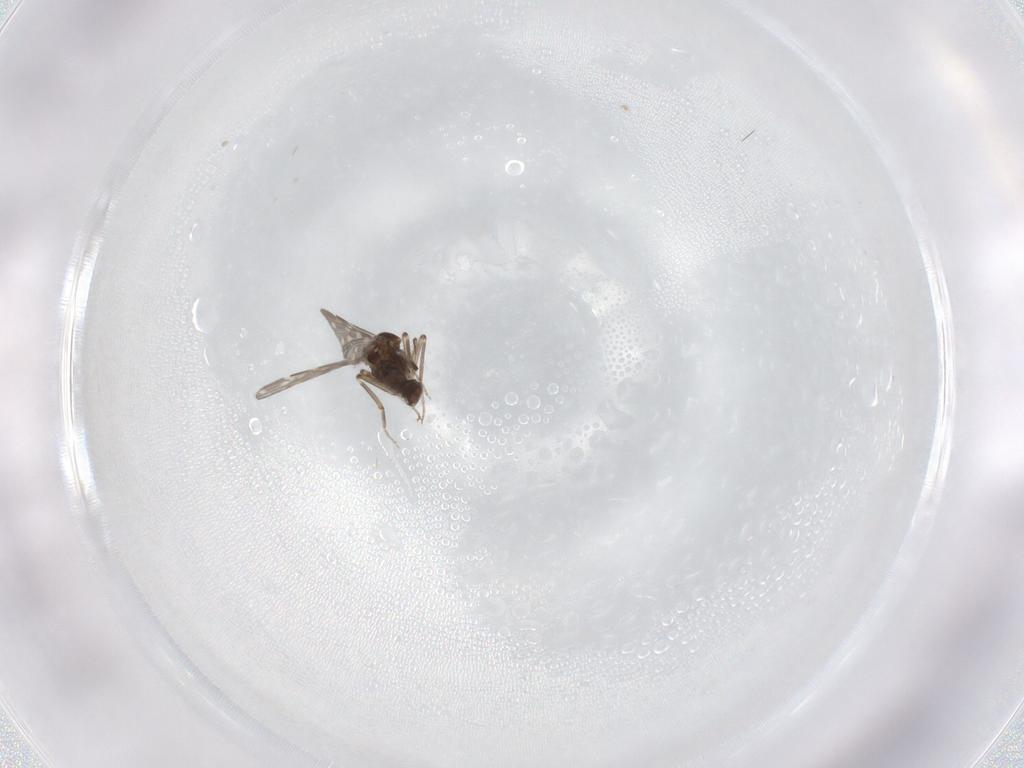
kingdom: Animalia
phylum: Arthropoda
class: Insecta
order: Diptera
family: Ceratopogonidae
